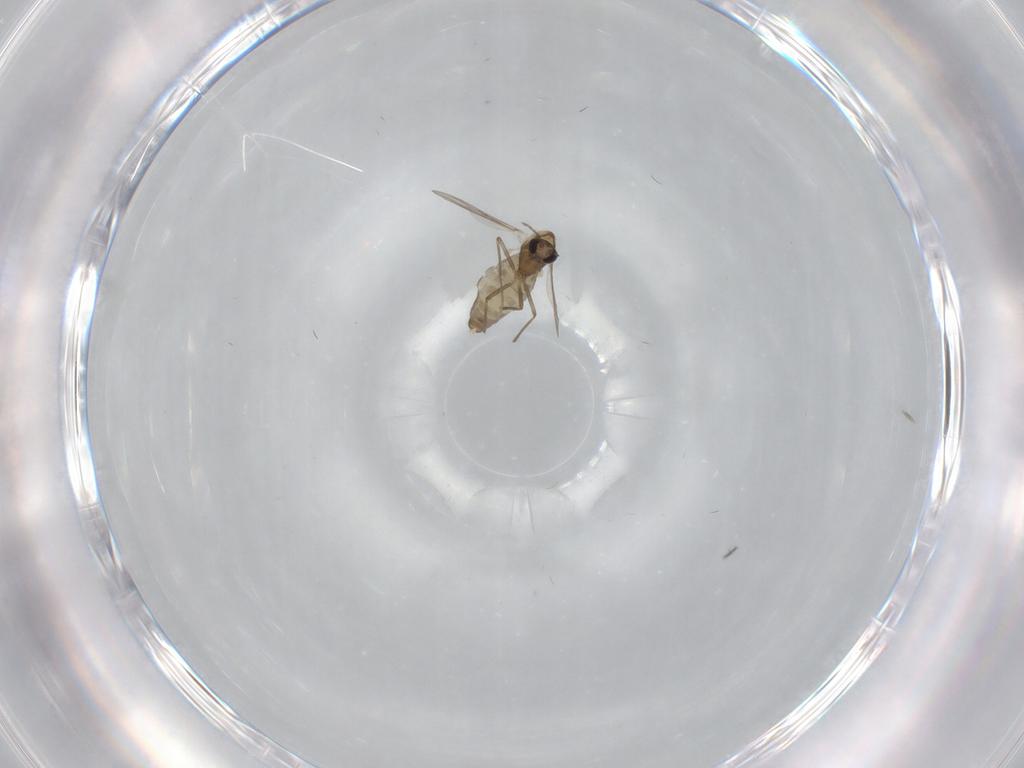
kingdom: Animalia
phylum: Arthropoda
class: Insecta
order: Diptera
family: Chironomidae
